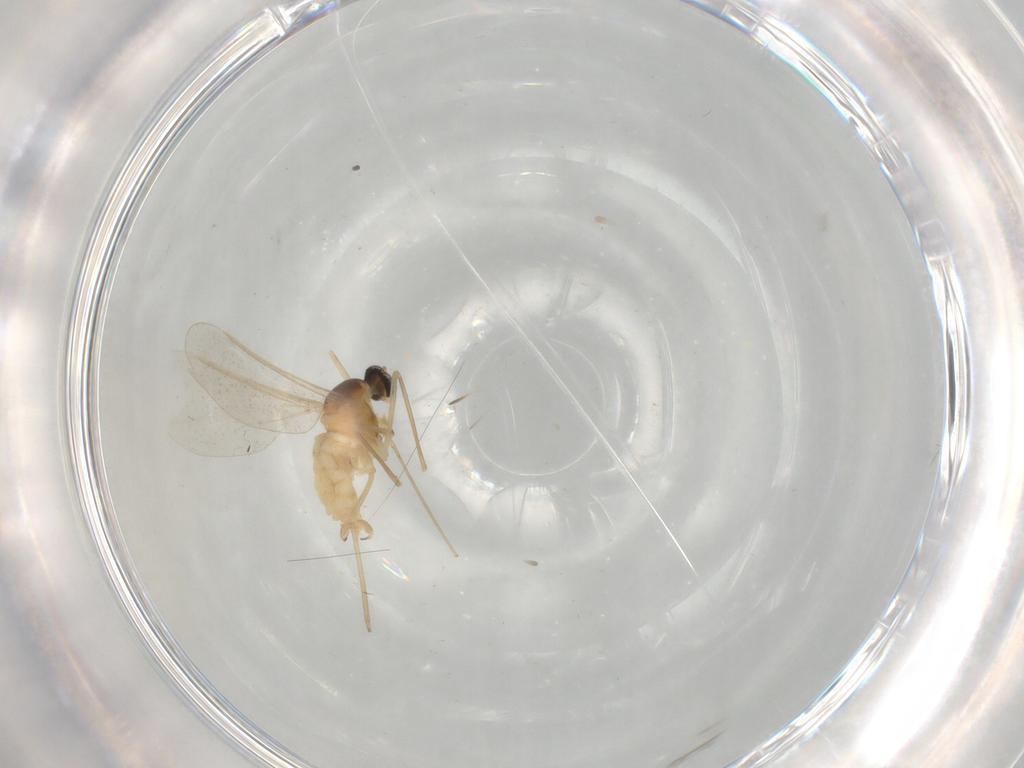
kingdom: Animalia
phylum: Arthropoda
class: Insecta
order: Diptera
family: Cecidomyiidae
